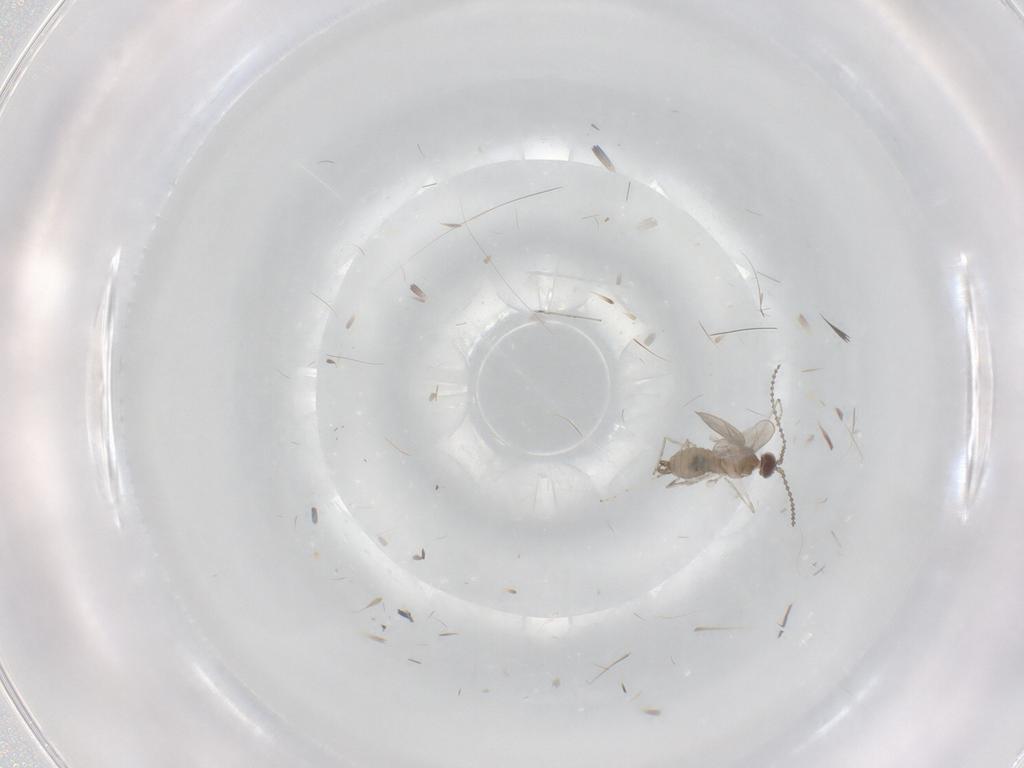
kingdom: Animalia
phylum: Arthropoda
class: Insecta
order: Diptera
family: Cecidomyiidae
